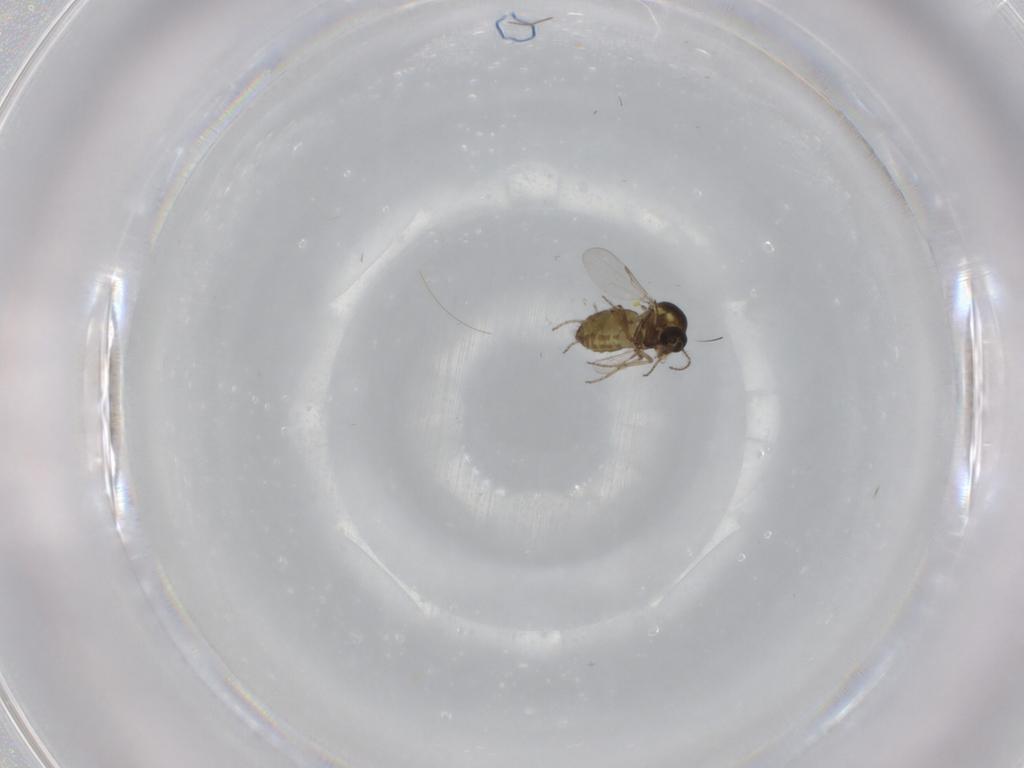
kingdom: Animalia
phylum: Arthropoda
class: Insecta
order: Diptera
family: Ceratopogonidae
